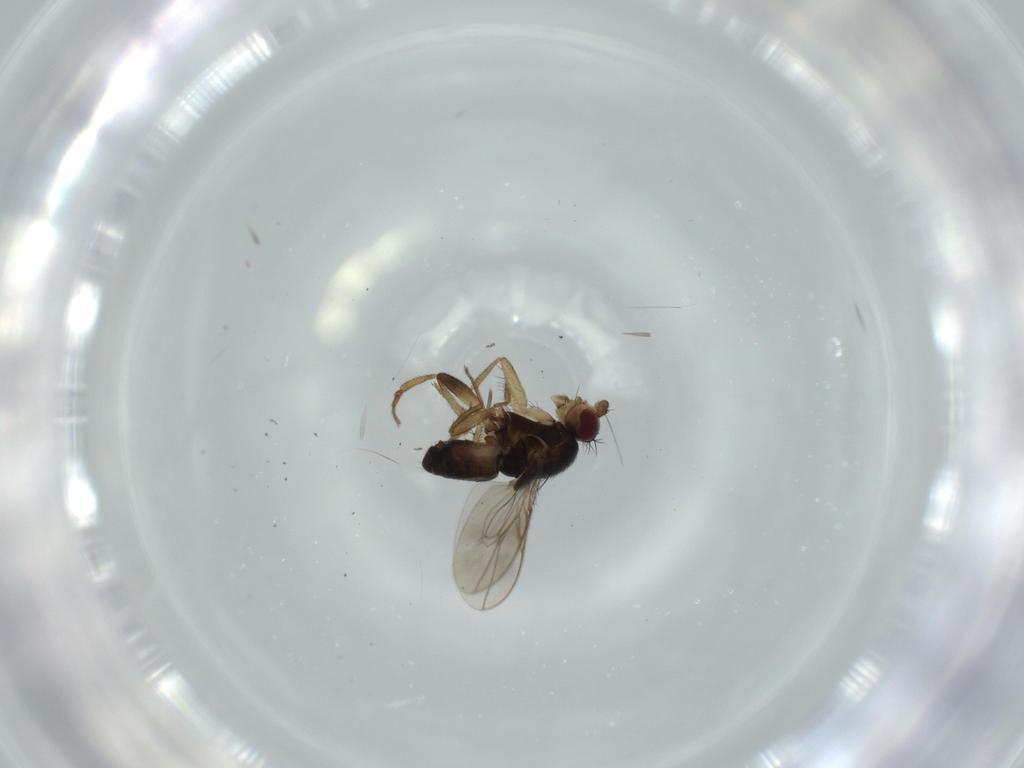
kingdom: Animalia
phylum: Arthropoda
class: Insecta
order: Diptera
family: Sphaeroceridae
